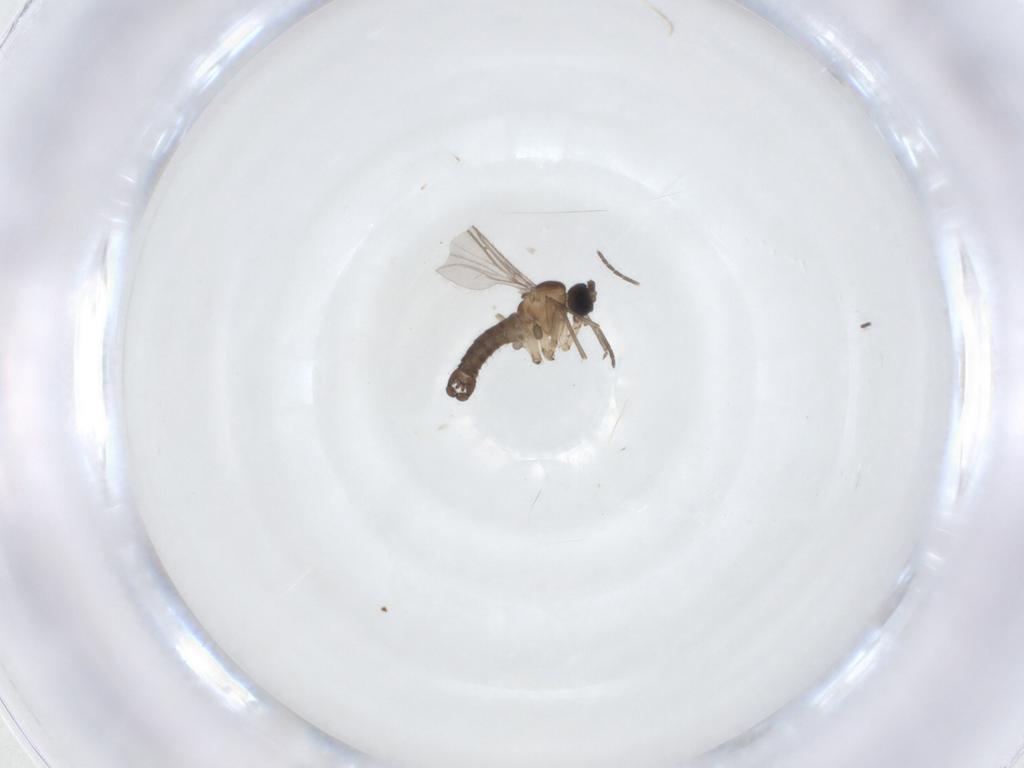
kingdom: Animalia
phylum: Arthropoda
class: Insecta
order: Diptera
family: Sciaridae
